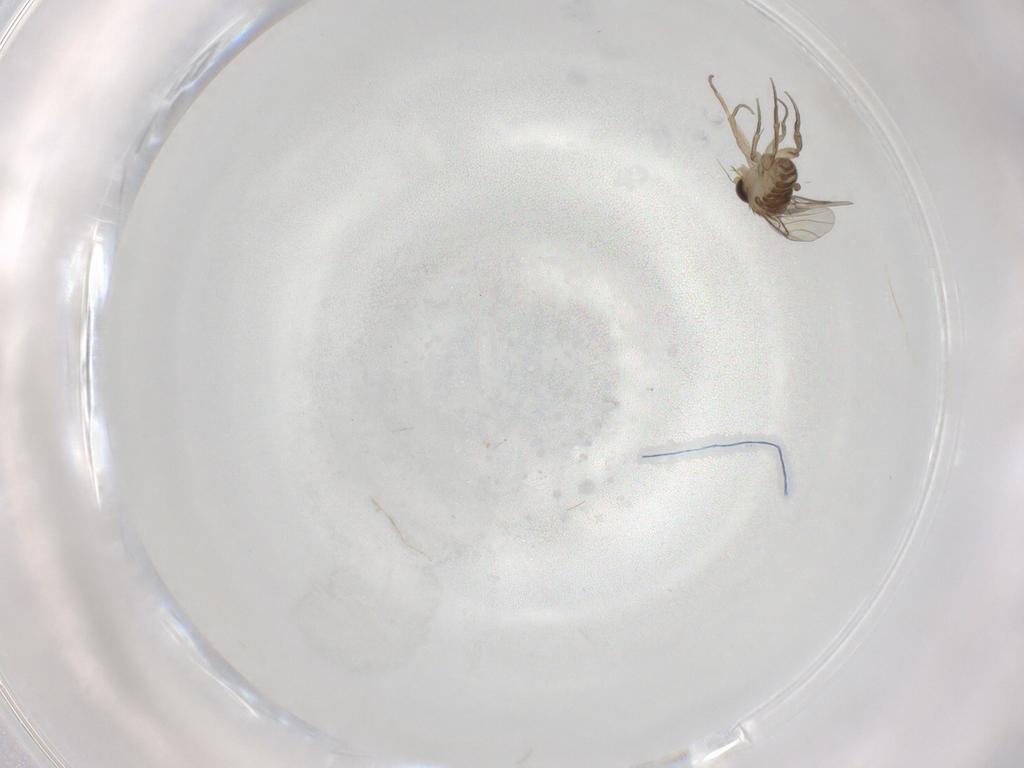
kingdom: Animalia
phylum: Arthropoda
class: Insecta
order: Diptera
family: Phoridae
